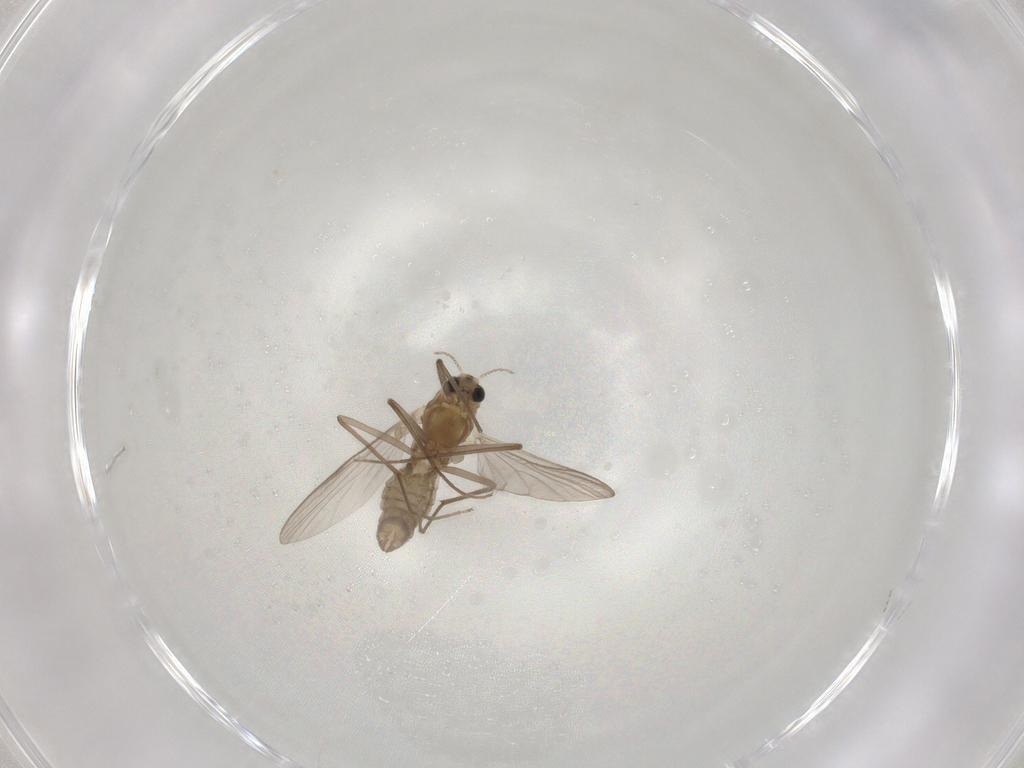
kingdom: Animalia
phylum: Arthropoda
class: Insecta
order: Diptera
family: Chironomidae
